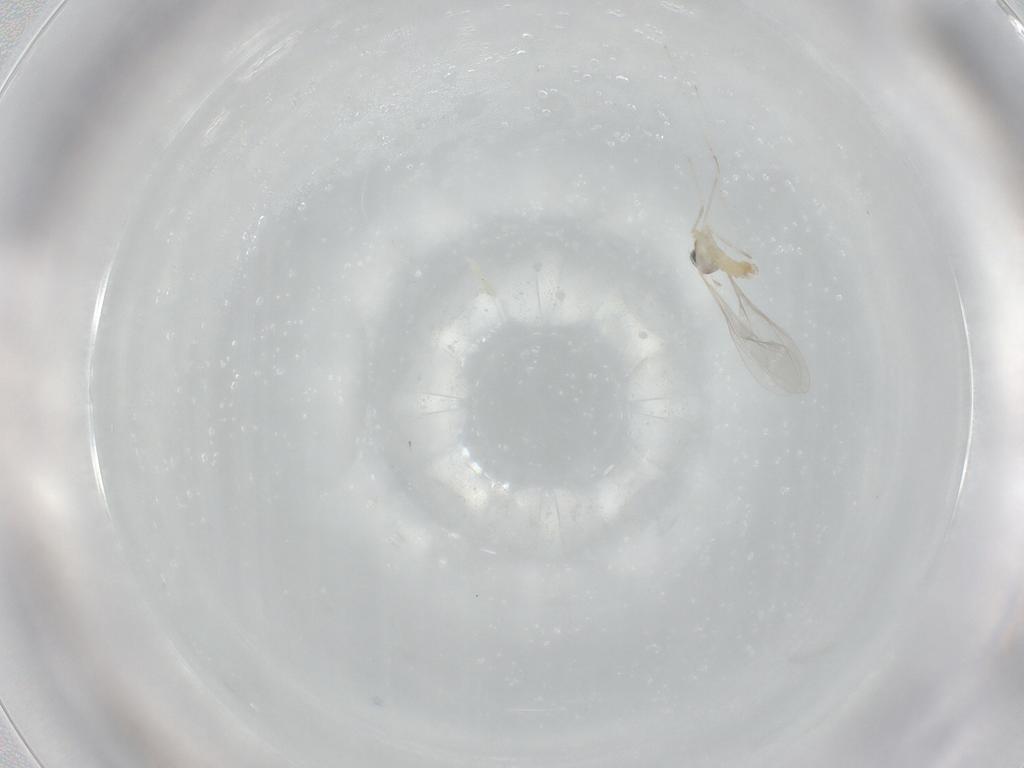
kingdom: Animalia
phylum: Arthropoda
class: Insecta
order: Diptera
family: Cecidomyiidae
